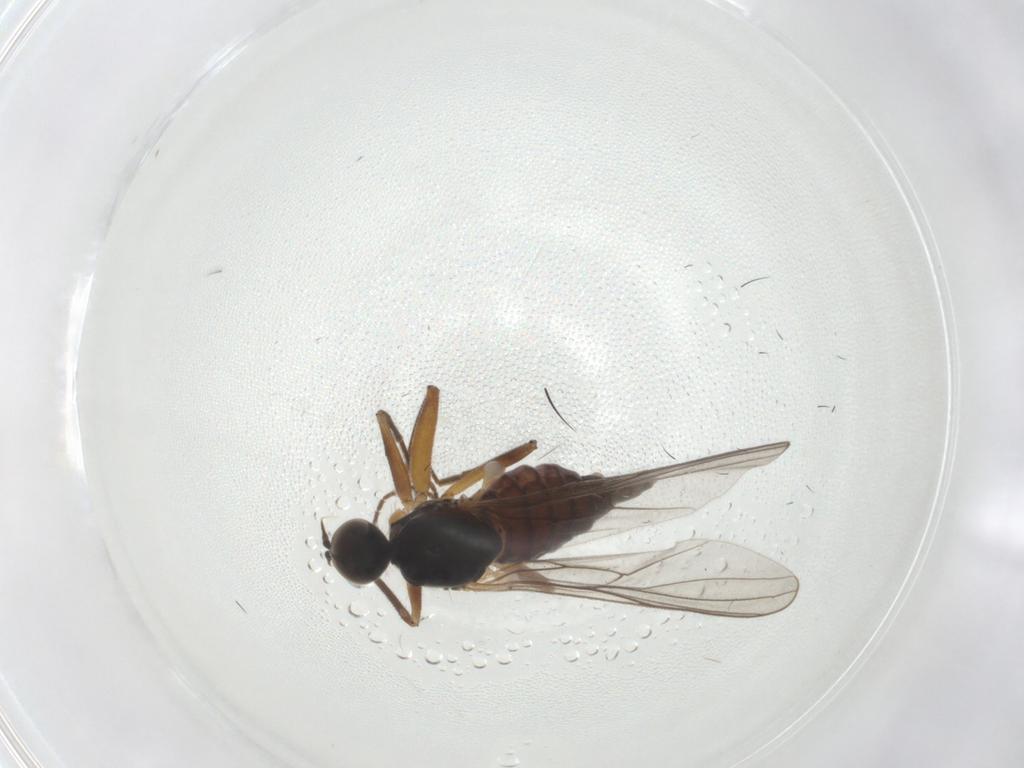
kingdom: Animalia
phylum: Arthropoda
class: Insecta
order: Diptera
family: Hybotidae
